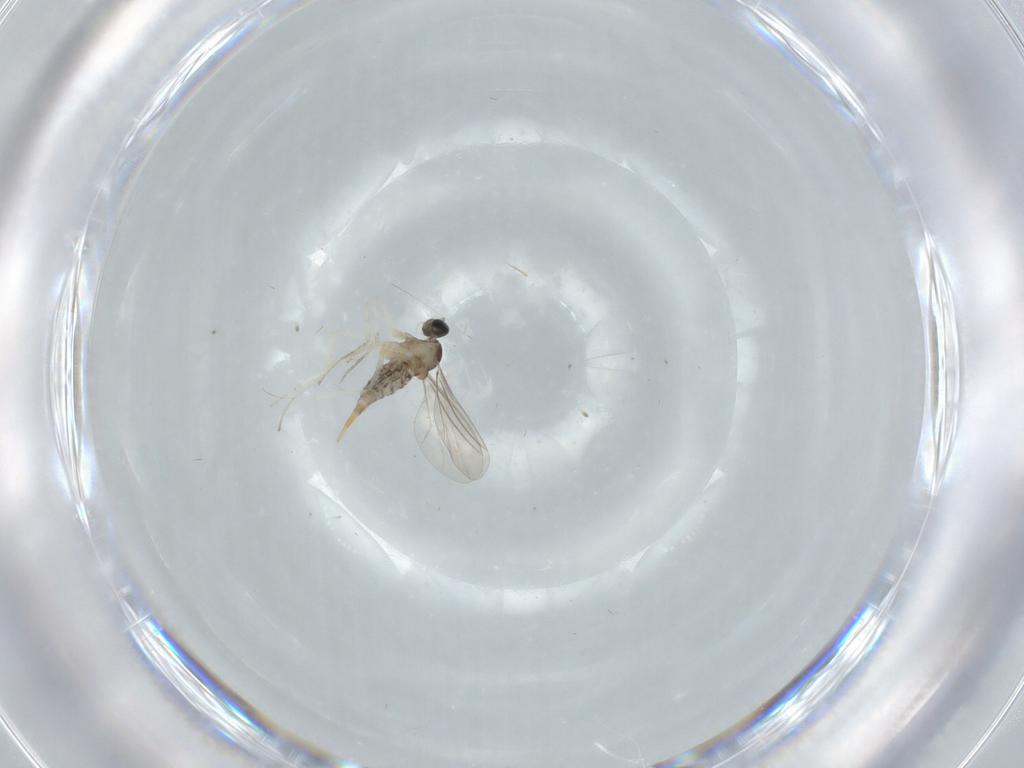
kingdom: Animalia
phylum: Arthropoda
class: Insecta
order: Diptera
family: Cecidomyiidae
